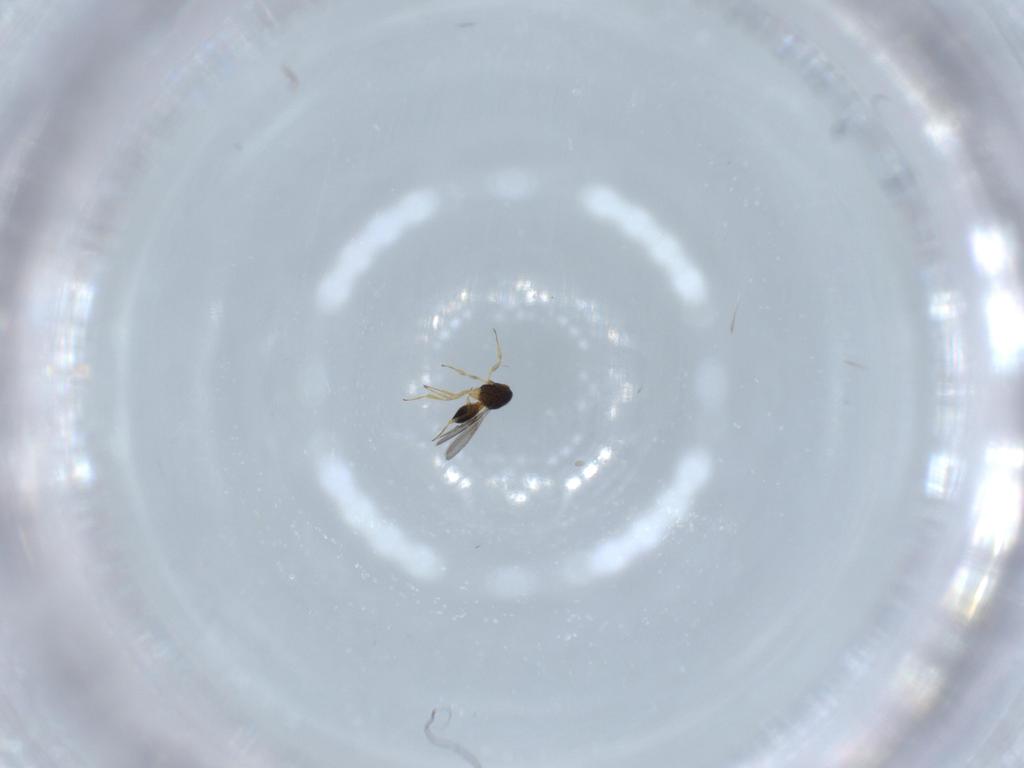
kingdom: Animalia
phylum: Arthropoda
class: Insecta
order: Hymenoptera
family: Scelionidae
